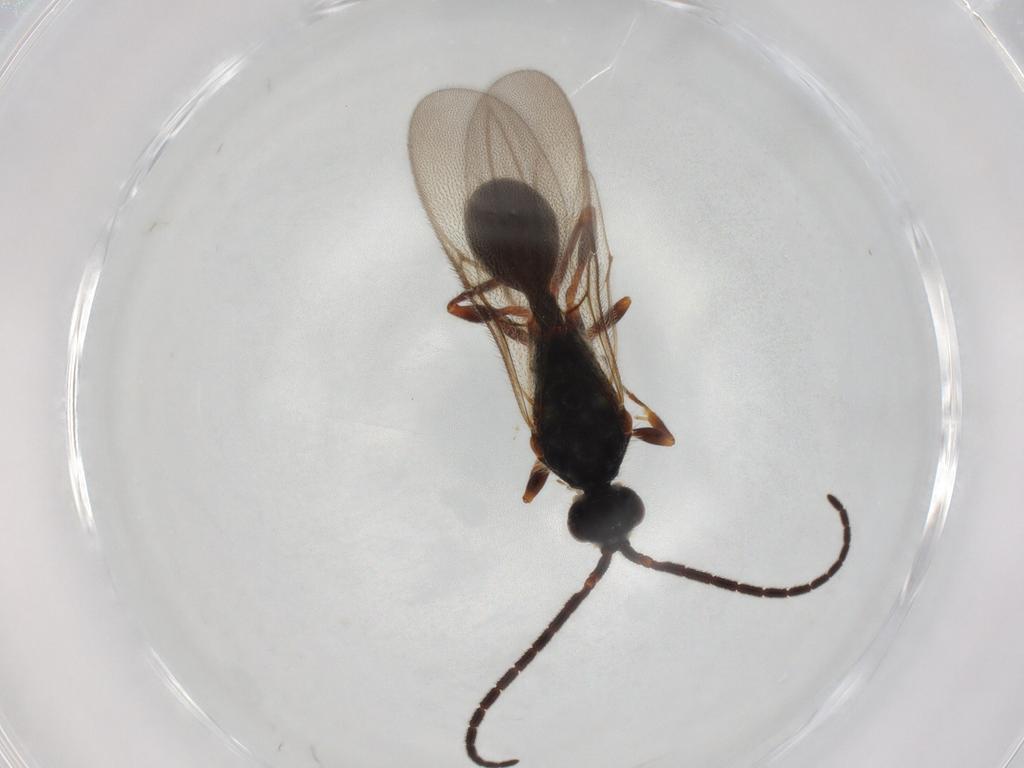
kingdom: Animalia
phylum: Arthropoda
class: Insecta
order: Hymenoptera
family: Diapriidae
